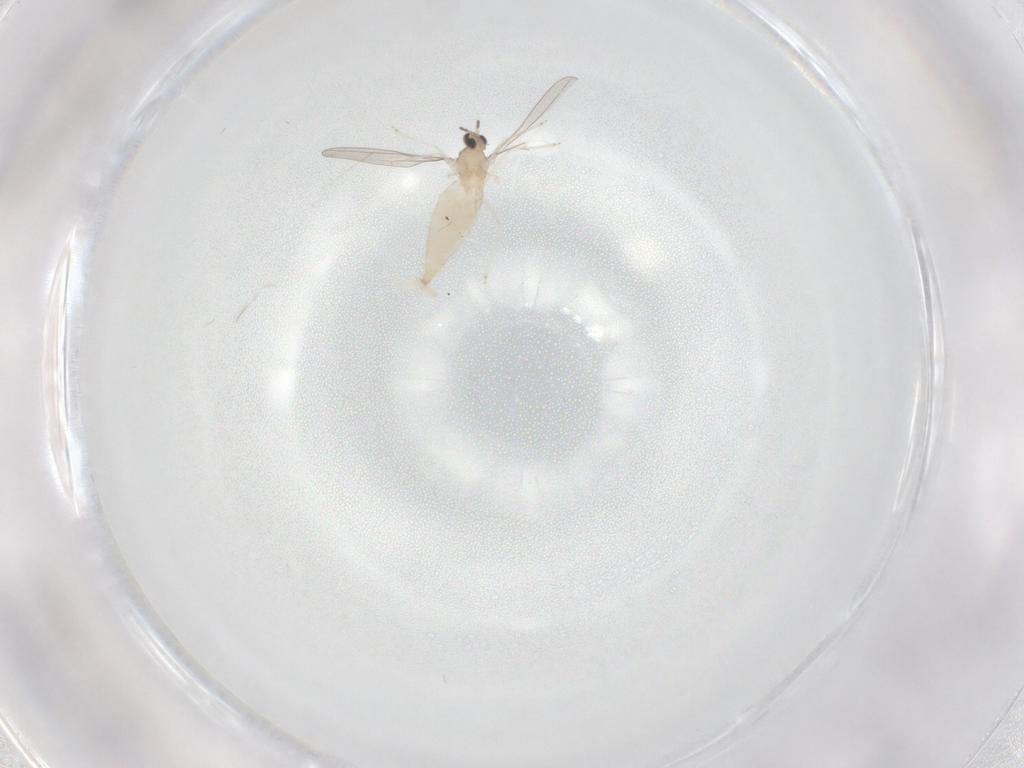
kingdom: Animalia
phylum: Arthropoda
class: Insecta
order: Diptera
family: Cecidomyiidae
